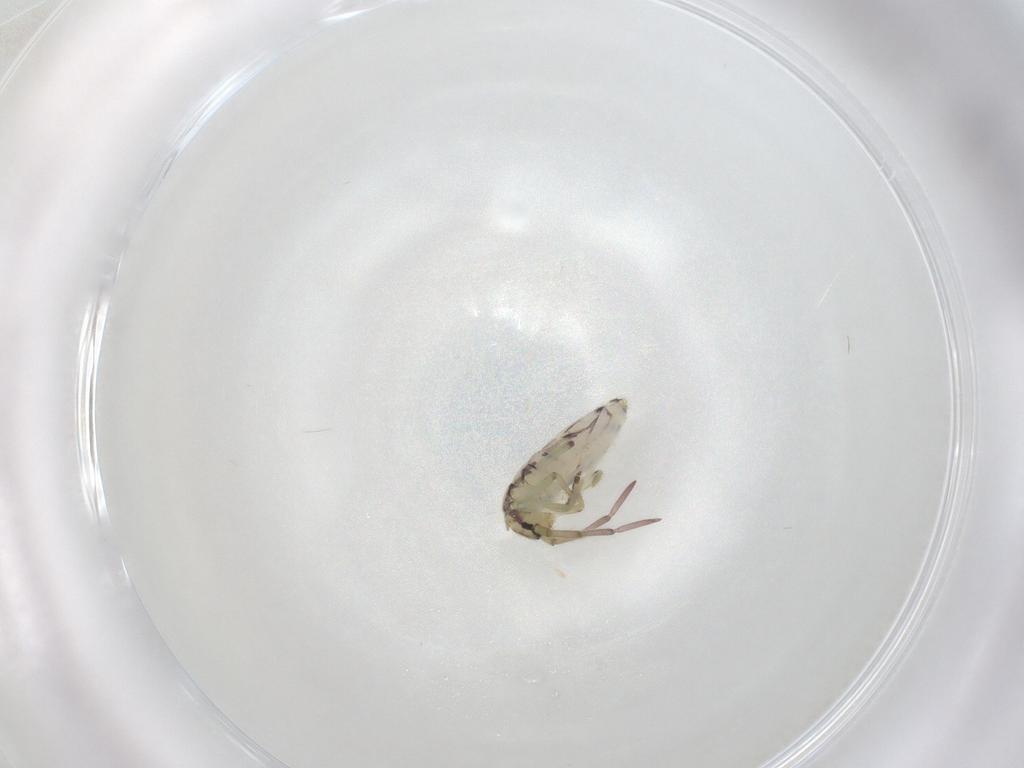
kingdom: Animalia
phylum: Arthropoda
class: Collembola
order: Entomobryomorpha
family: Entomobryidae
